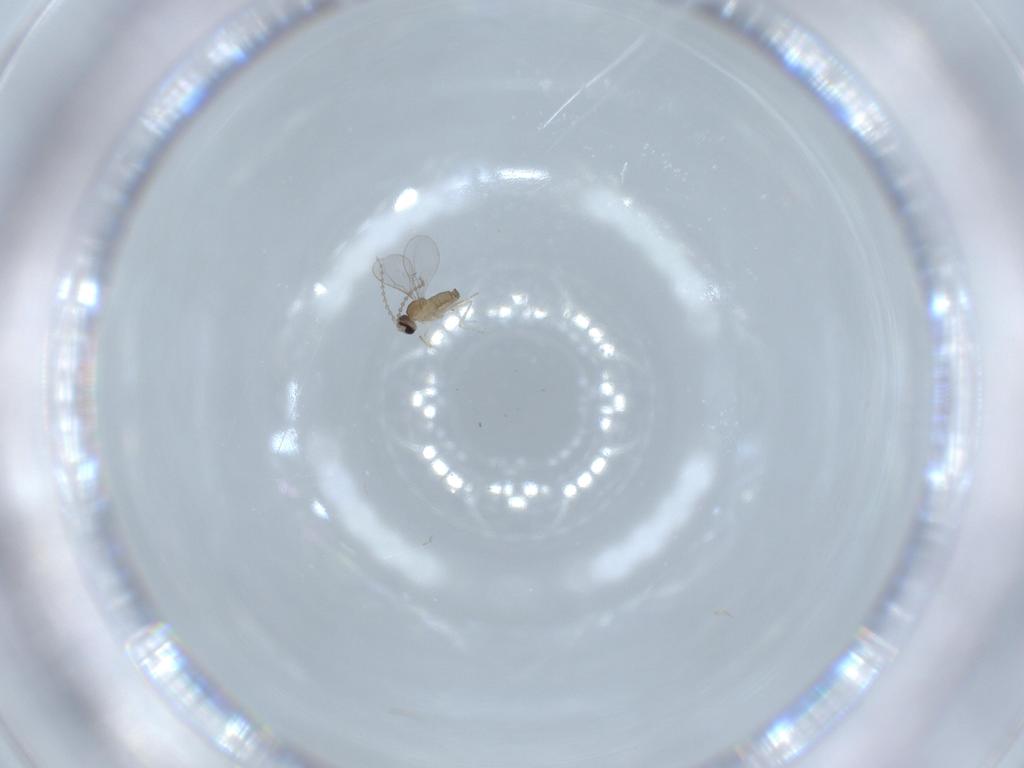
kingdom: Animalia
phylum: Arthropoda
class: Insecta
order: Diptera
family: Cecidomyiidae
